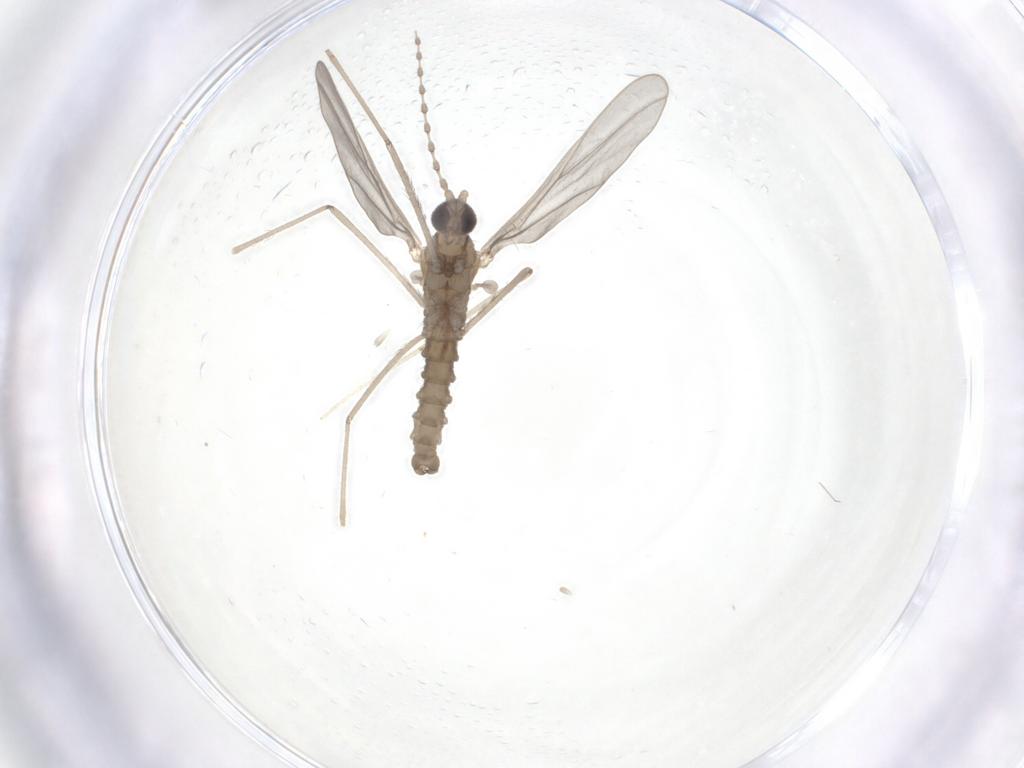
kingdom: Animalia
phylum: Arthropoda
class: Insecta
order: Diptera
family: Cecidomyiidae
